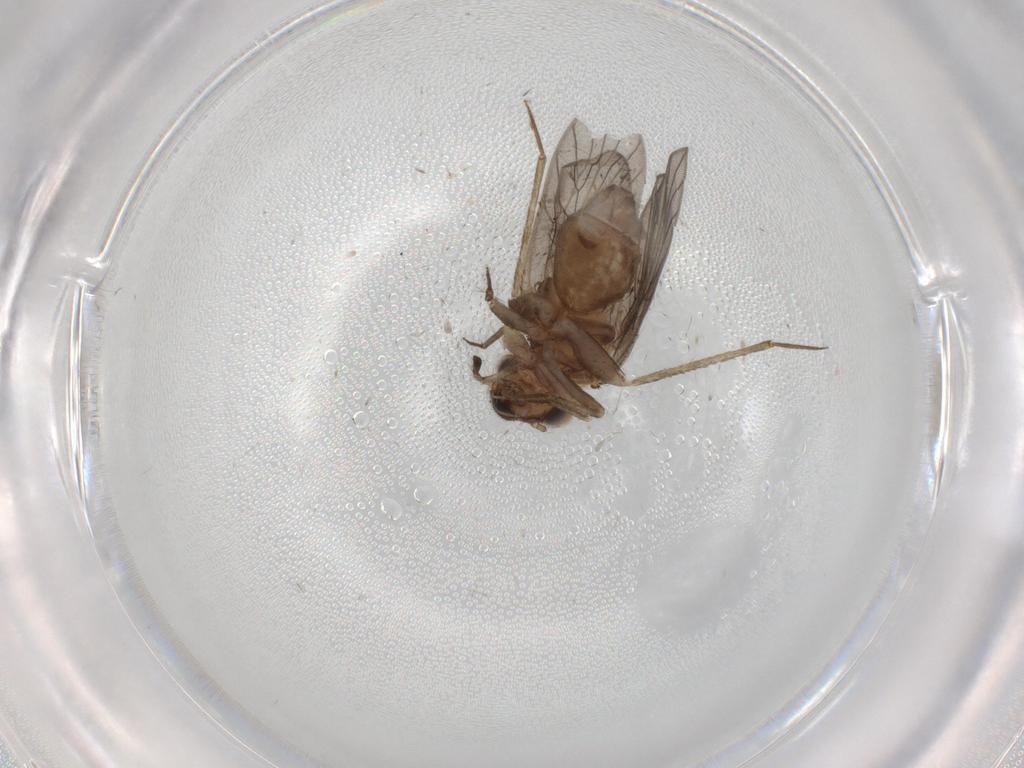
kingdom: Animalia
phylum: Arthropoda
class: Insecta
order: Psocodea
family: Lepidopsocidae
